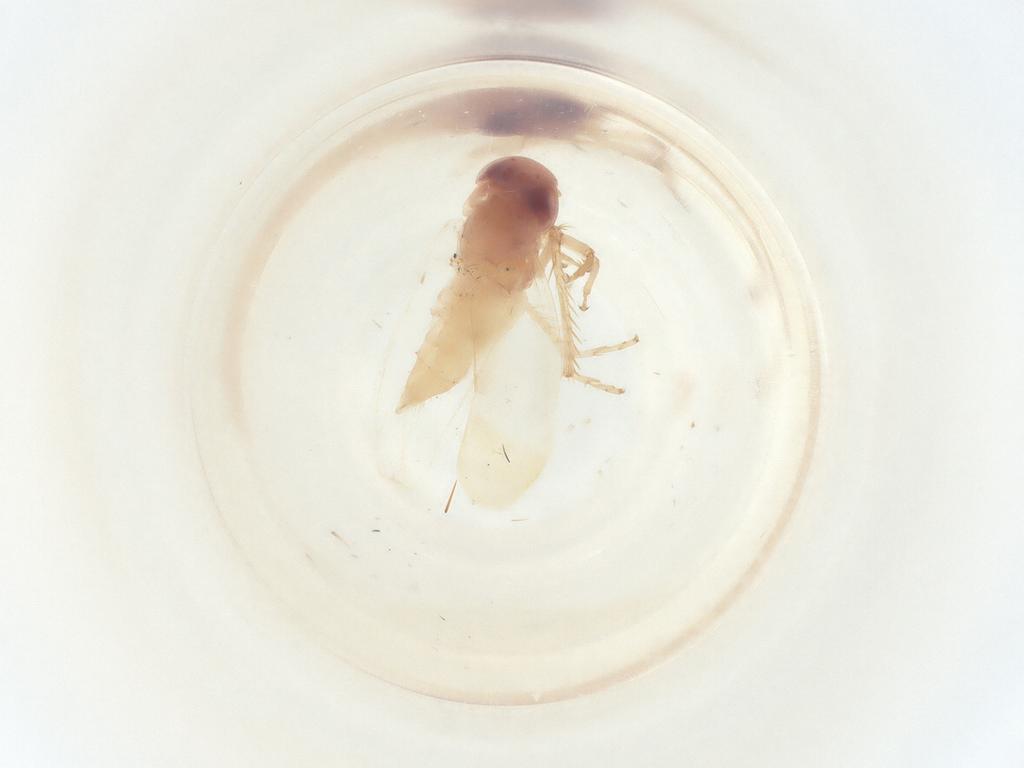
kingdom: Animalia
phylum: Arthropoda
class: Insecta
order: Hemiptera
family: Cicadellidae
